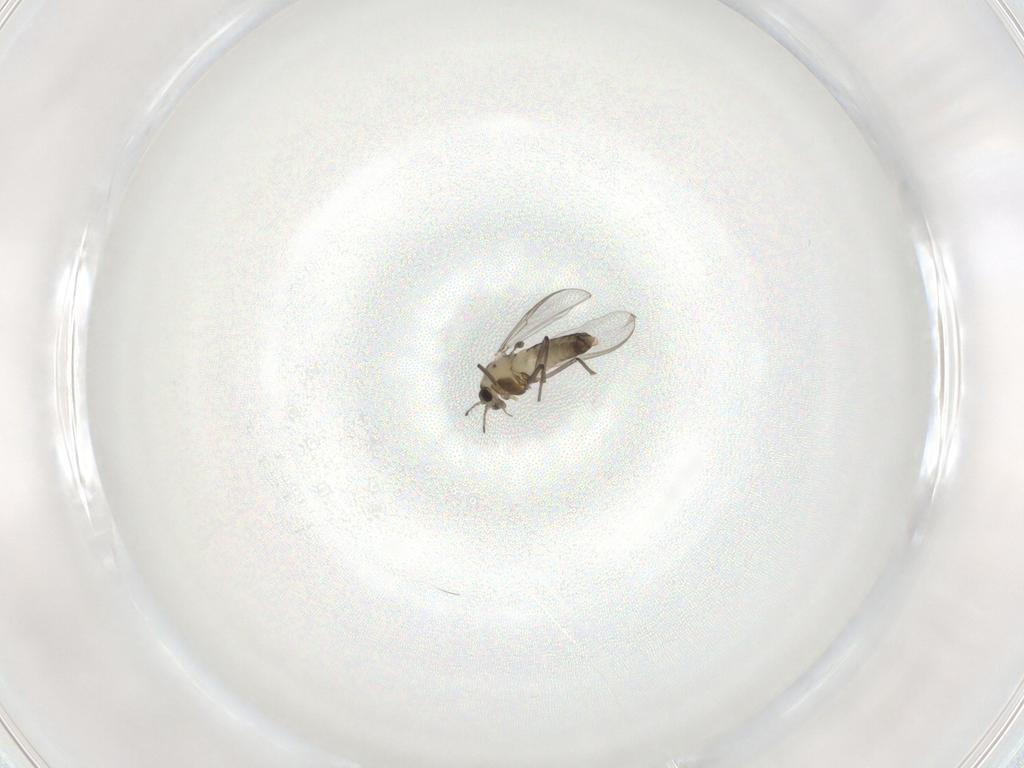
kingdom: Animalia
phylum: Arthropoda
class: Insecta
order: Diptera
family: Chironomidae
